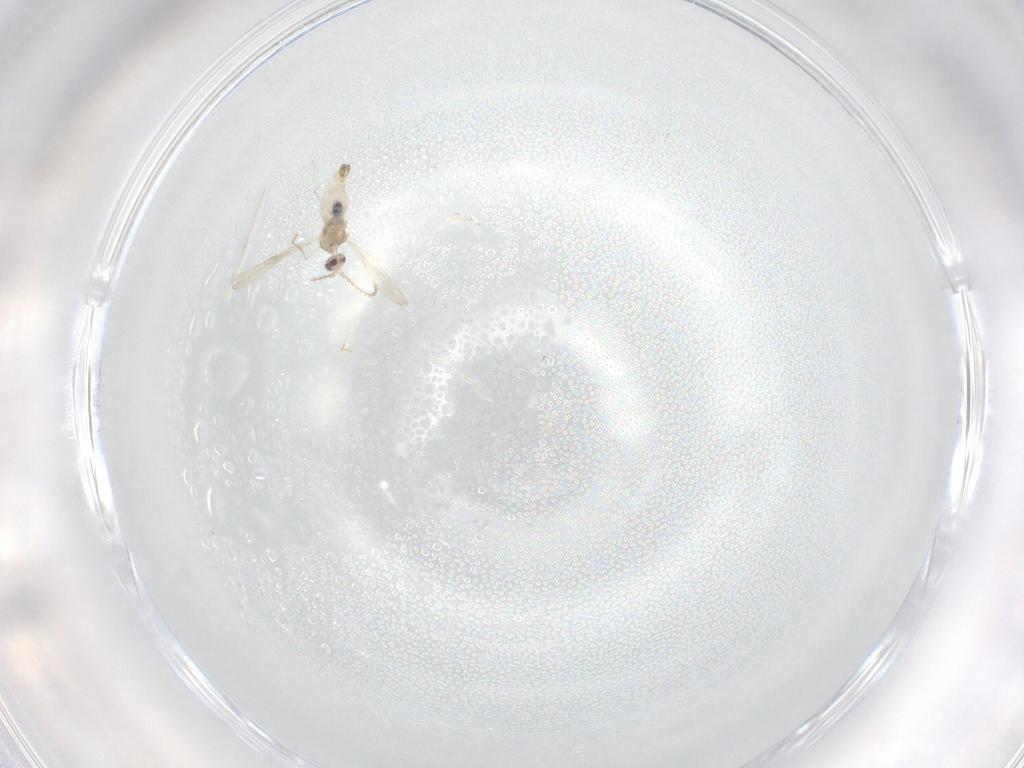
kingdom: Animalia
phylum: Arthropoda
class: Insecta
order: Diptera
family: Cecidomyiidae
